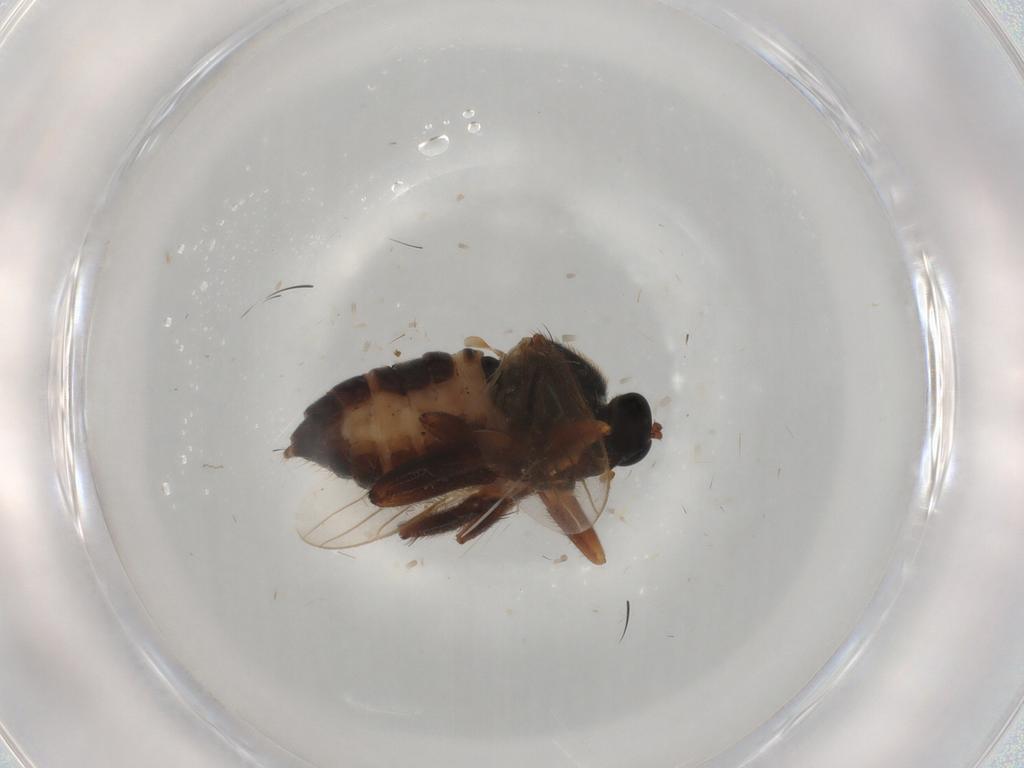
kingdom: Animalia
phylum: Arthropoda
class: Insecta
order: Diptera
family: Hybotidae
